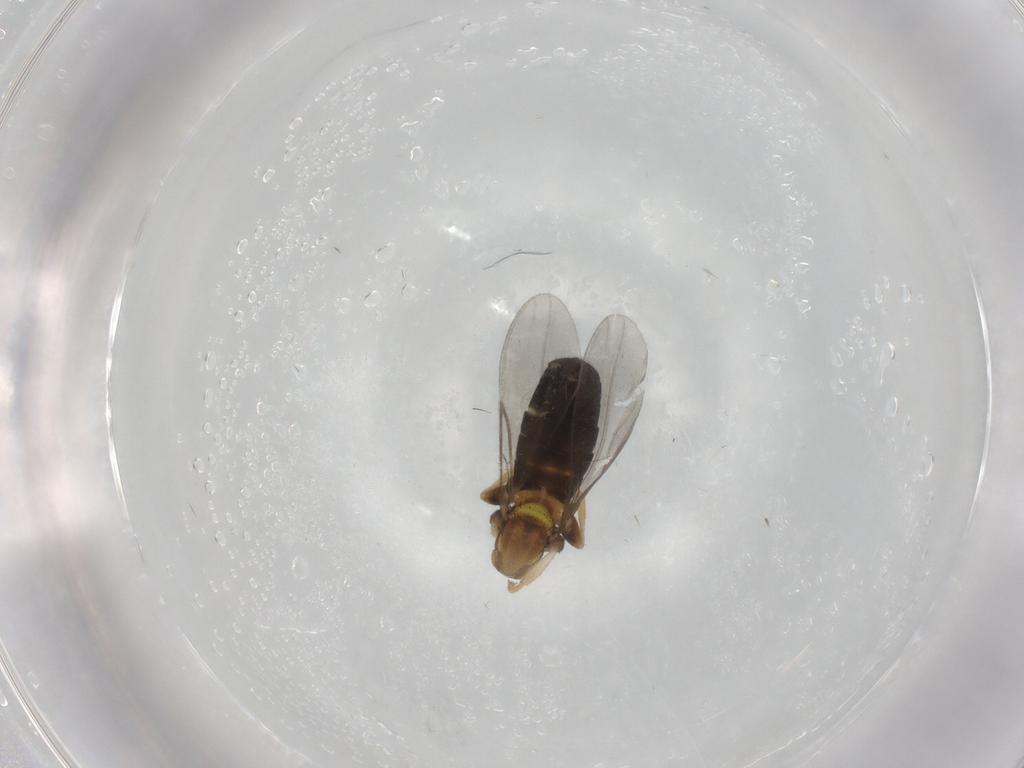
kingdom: Animalia
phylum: Arthropoda
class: Insecta
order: Diptera
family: Scatopsidae
